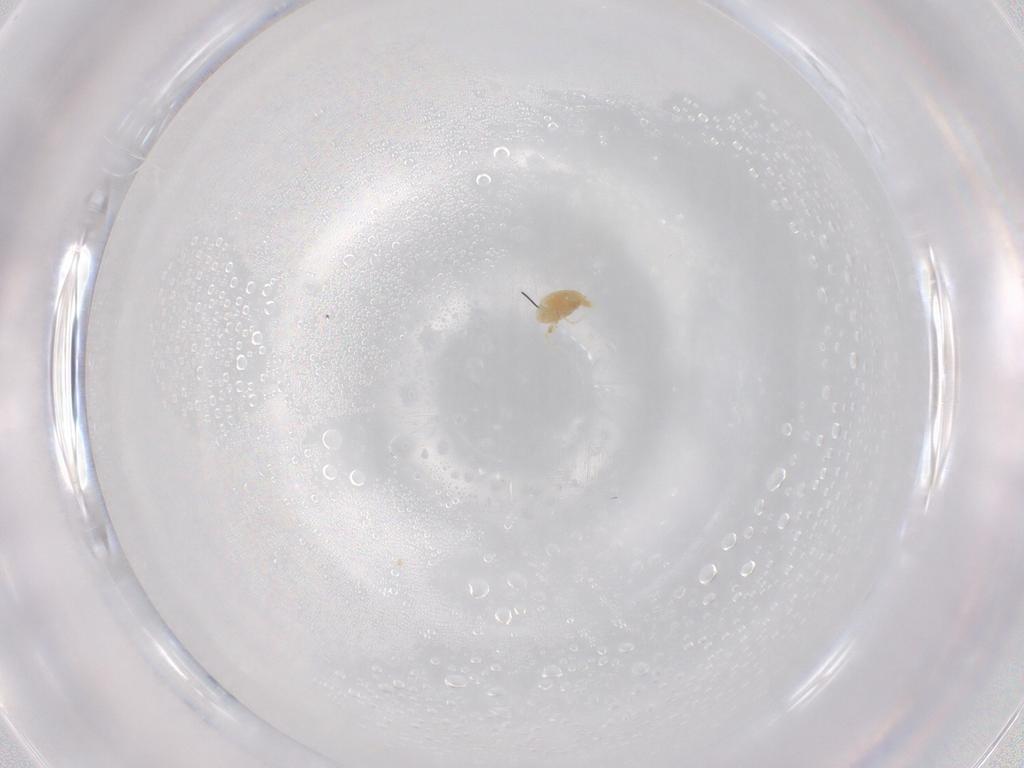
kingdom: Animalia
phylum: Arthropoda
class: Arachnida
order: Trombidiformes
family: Eupodidae
